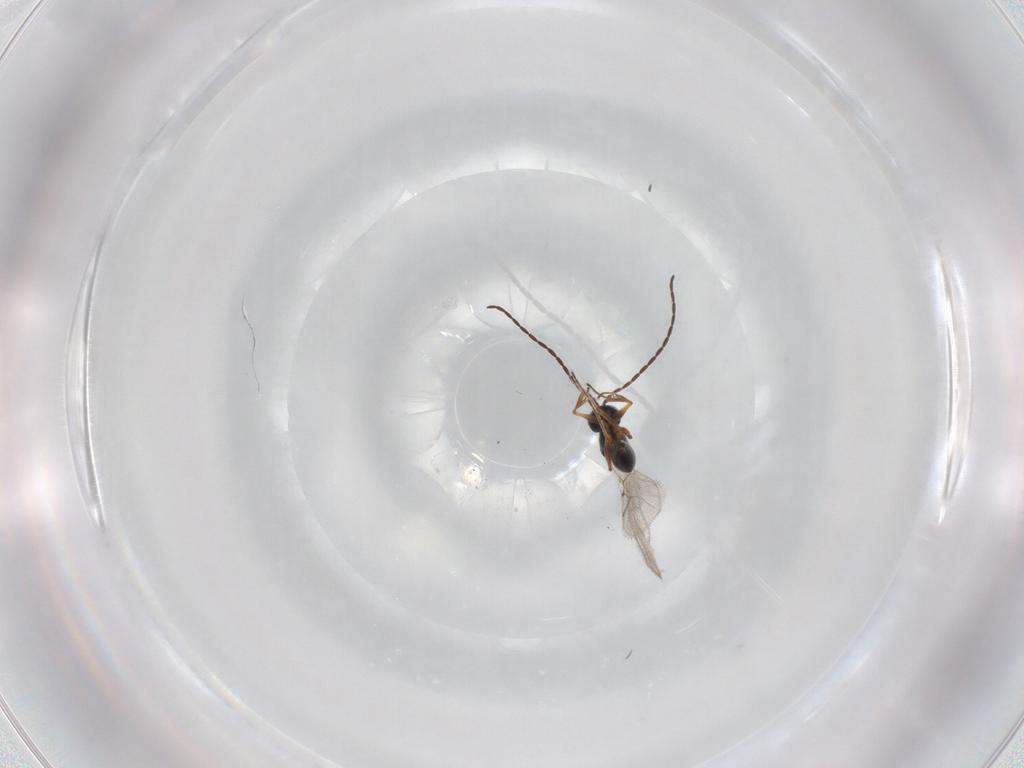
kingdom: Animalia
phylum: Arthropoda
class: Insecta
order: Hymenoptera
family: Figitidae
